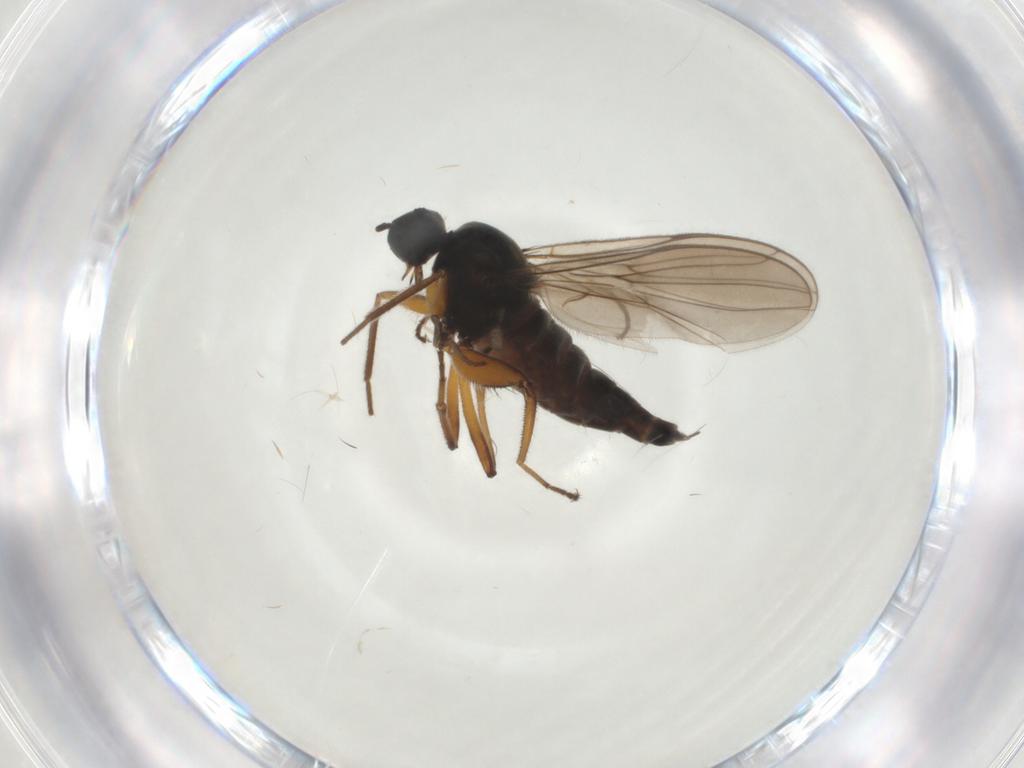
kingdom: Animalia
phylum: Arthropoda
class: Insecta
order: Diptera
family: Hybotidae
